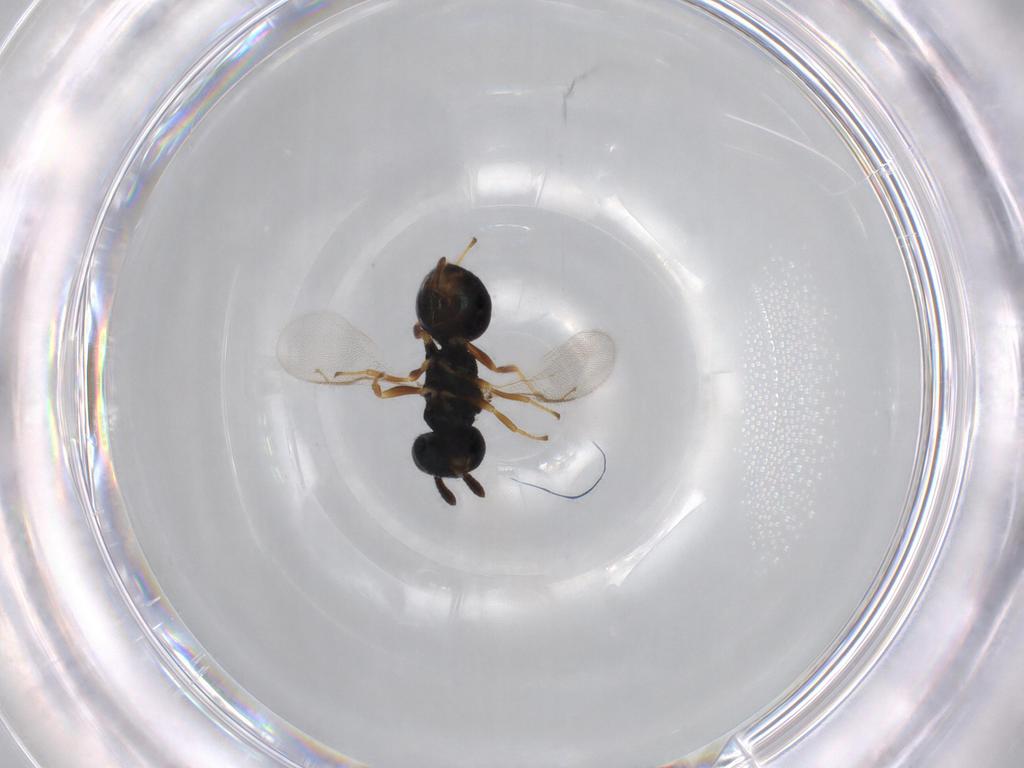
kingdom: Animalia
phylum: Arthropoda
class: Insecta
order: Hymenoptera
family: Pteromalidae
